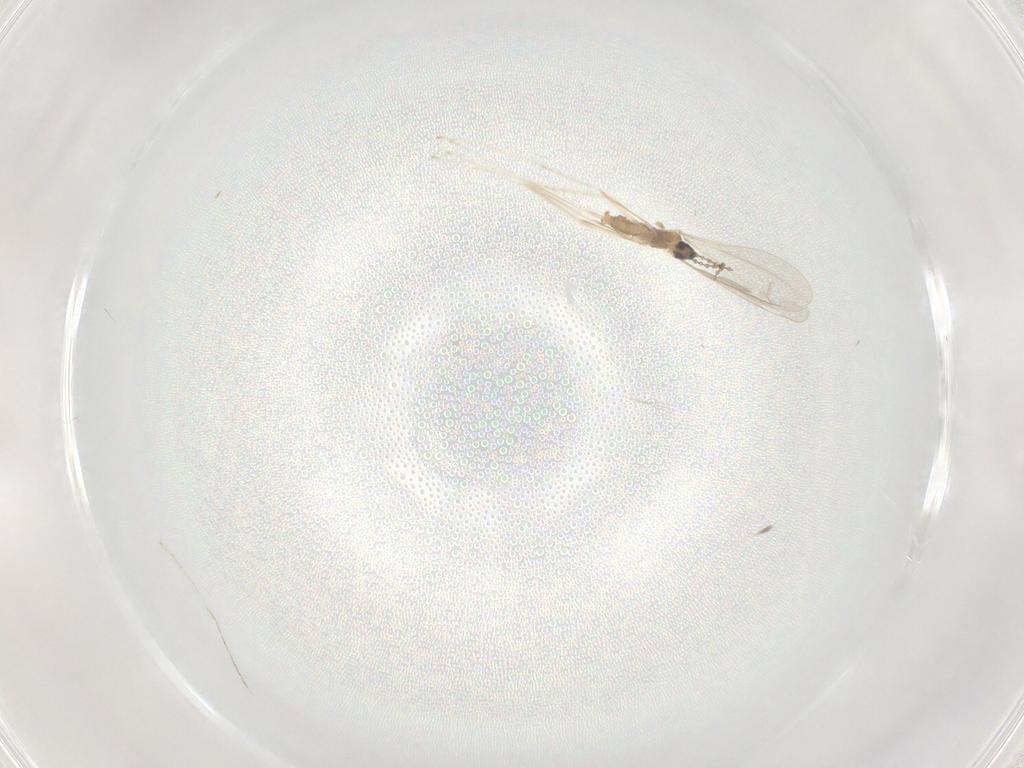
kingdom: Animalia
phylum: Arthropoda
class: Insecta
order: Diptera
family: Cecidomyiidae
